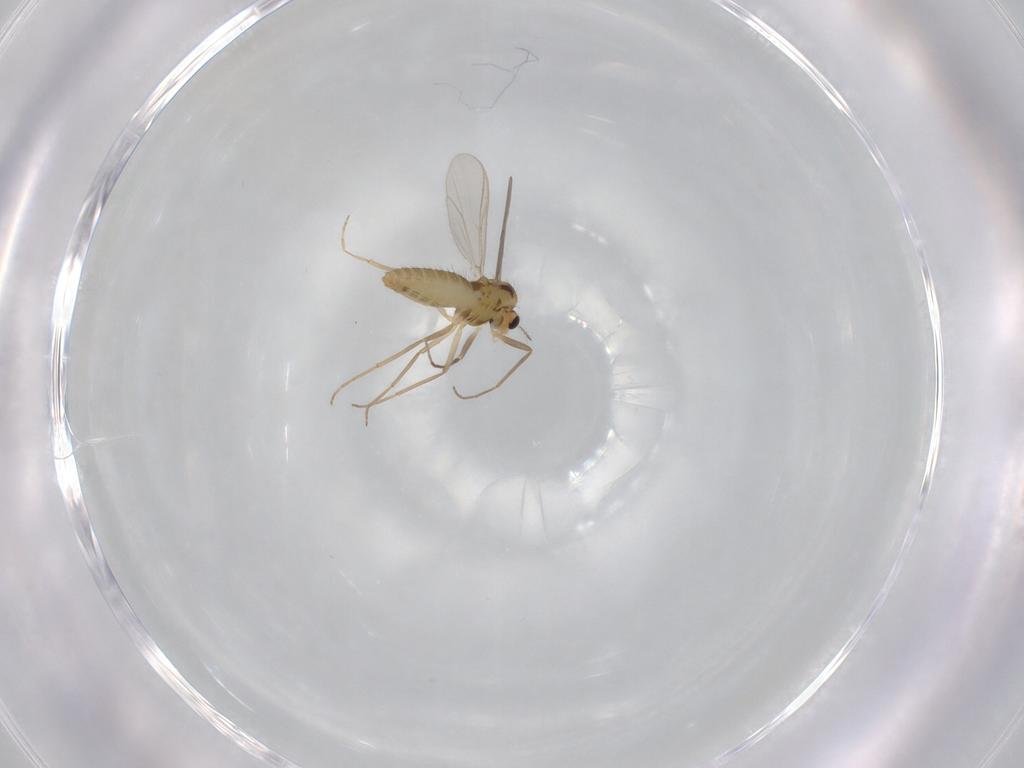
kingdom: Animalia
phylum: Arthropoda
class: Insecta
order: Diptera
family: Chironomidae
